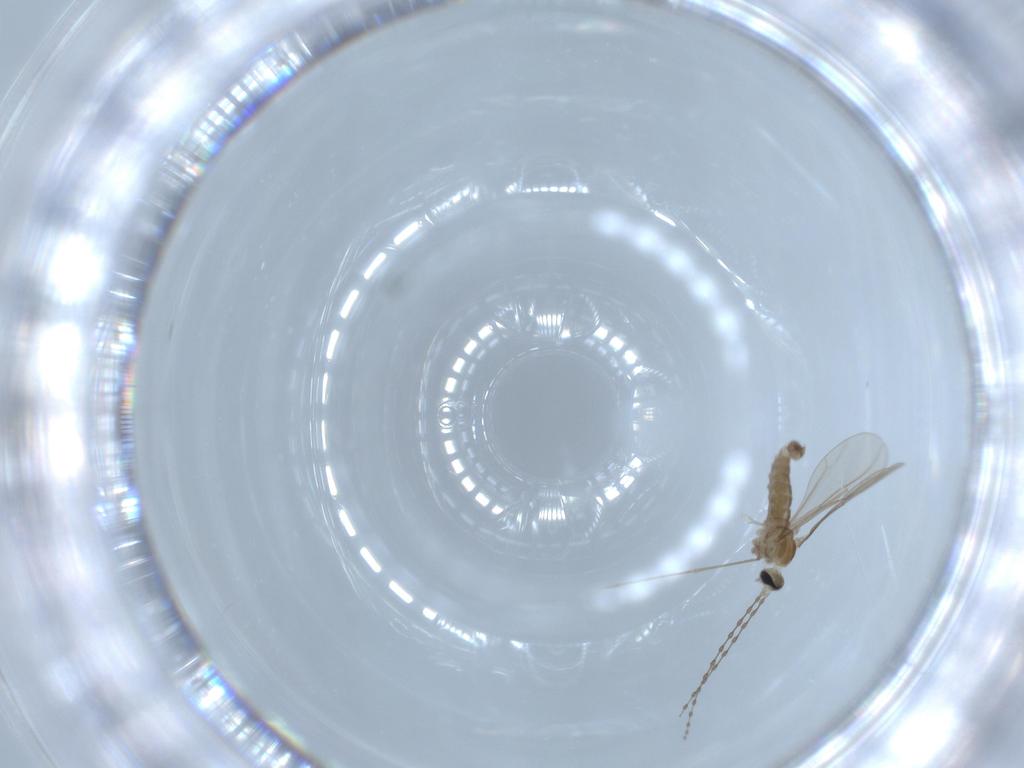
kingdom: Animalia
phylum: Arthropoda
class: Insecta
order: Diptera
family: Cecidomyiidae
